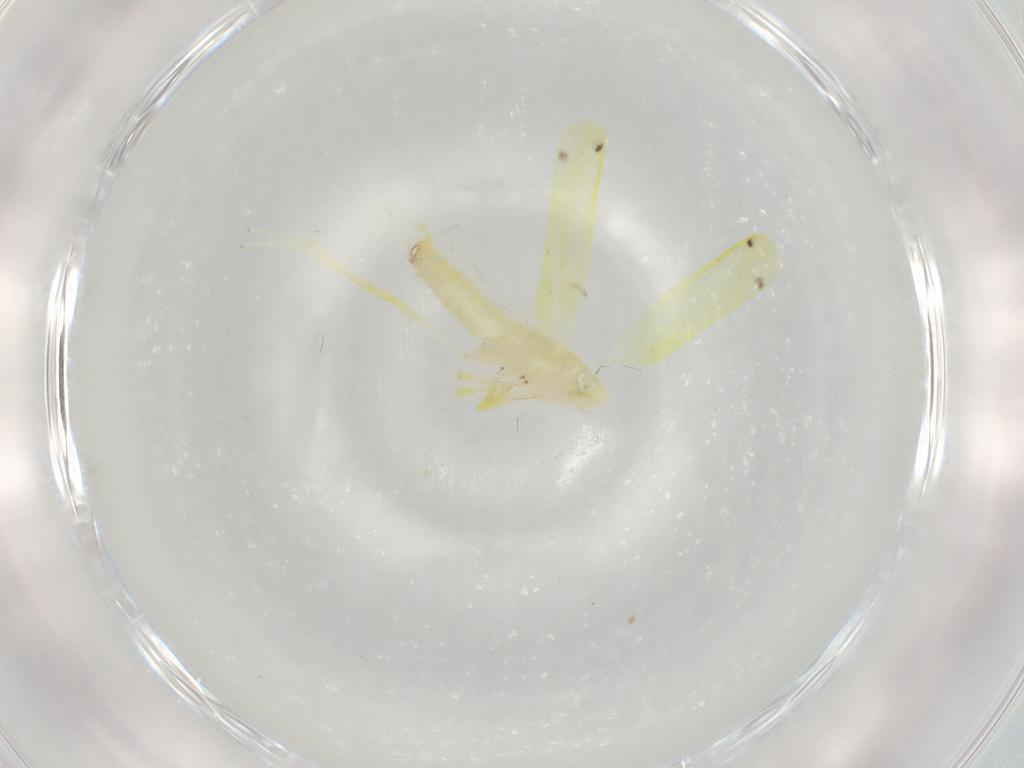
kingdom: Animalia
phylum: Arthropoda
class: Insecta
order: Hemiptera
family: Cicadellidae
